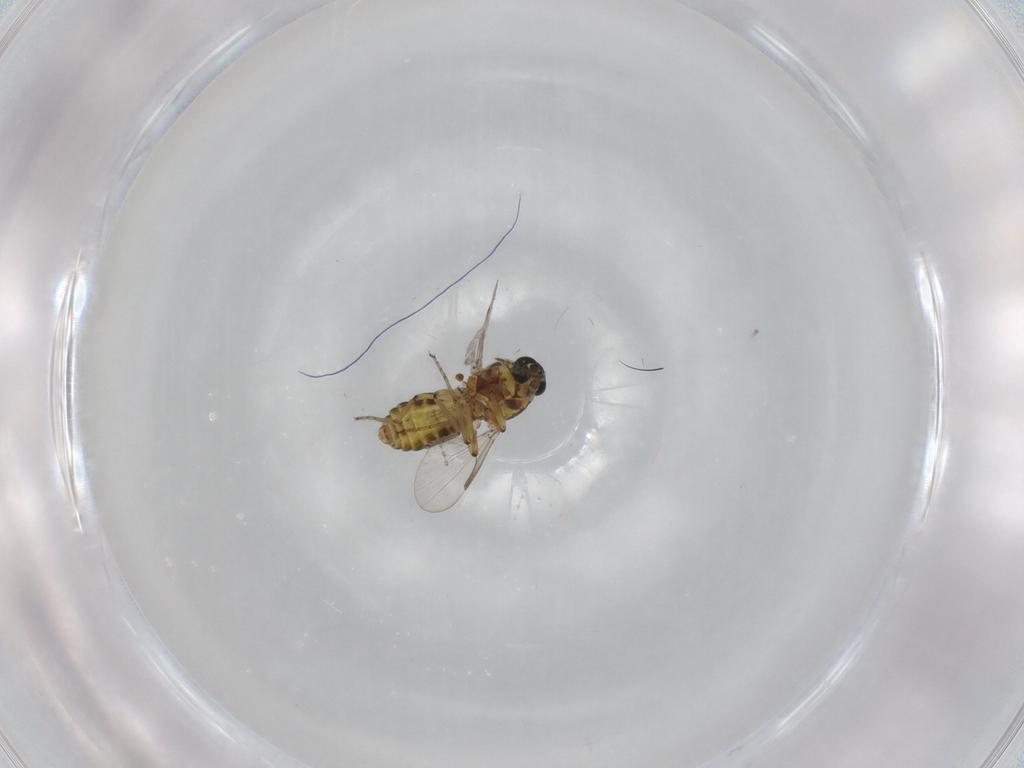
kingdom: Animalia
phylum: Arthropoda
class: Insecta
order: Diptera
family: Ceratopogonidae
